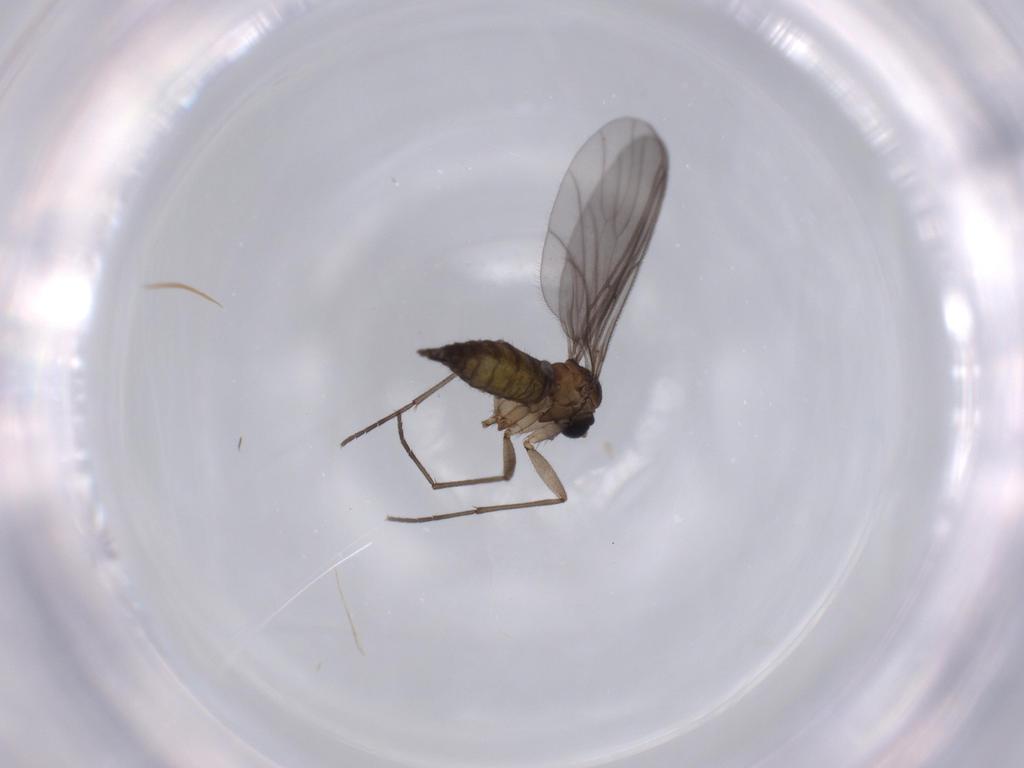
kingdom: Animalia
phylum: Arthropoda
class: Insecta
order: Diptera
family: Sciaridae
